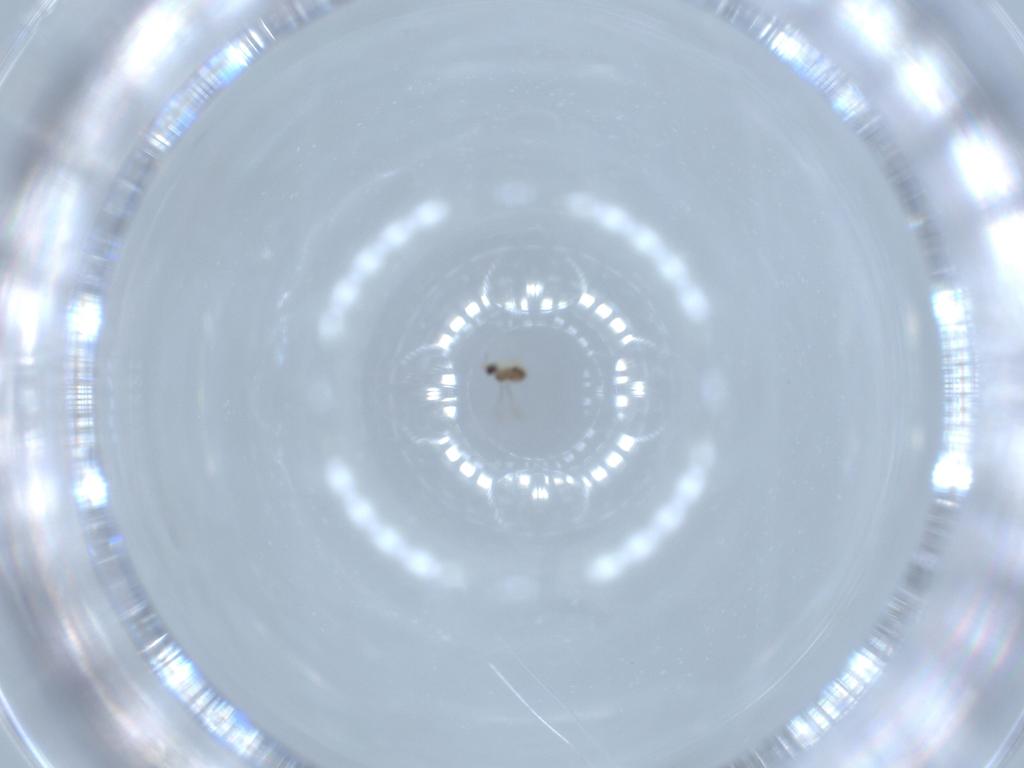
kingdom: Animalia
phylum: Arthropoda
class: Insecta
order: Hymenoptera
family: Mymaridae
